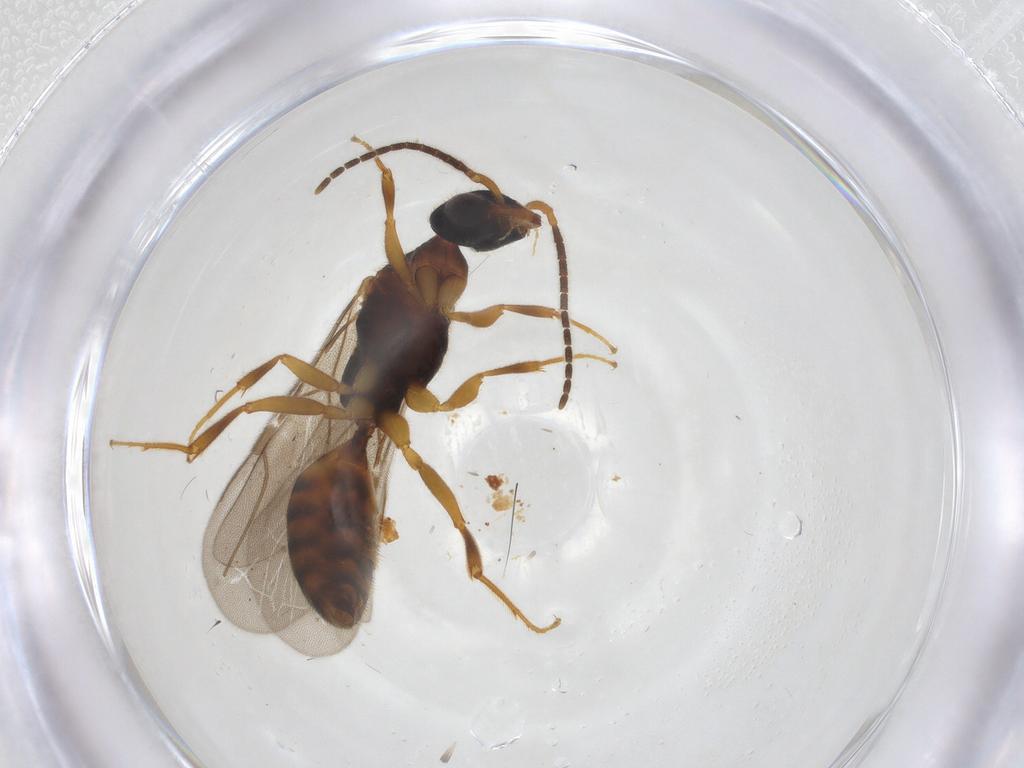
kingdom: Animalia
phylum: Arthropoda
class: Insecta
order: Hymenoptera
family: Bethylidae
